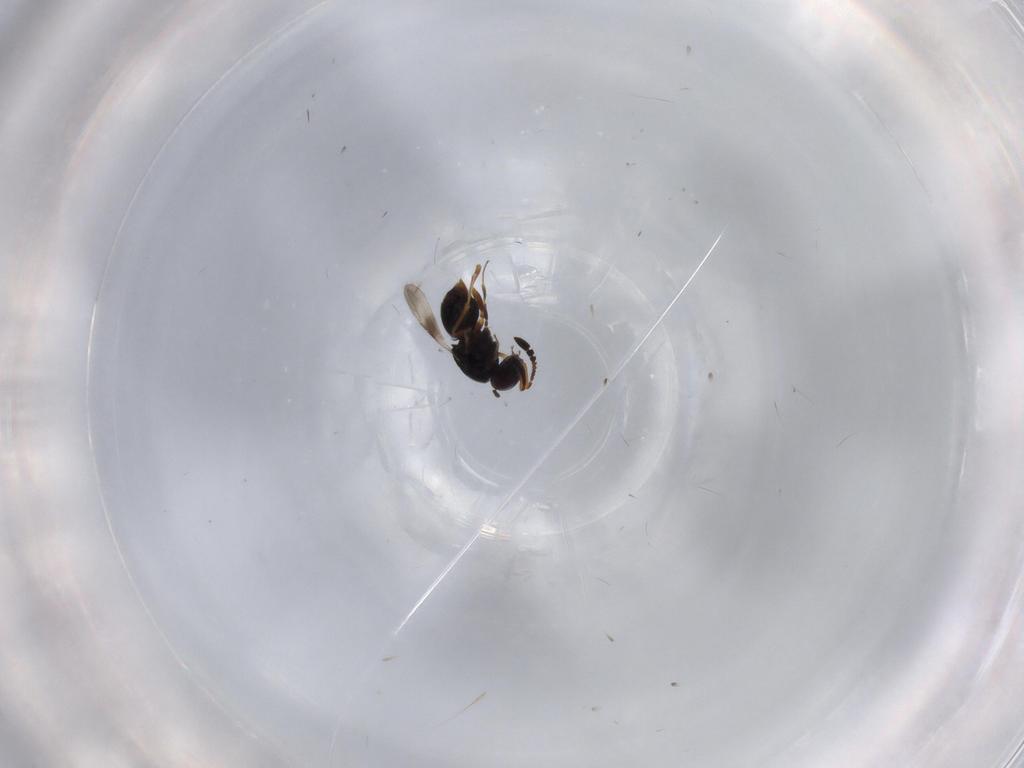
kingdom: Animalia
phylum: Arthropoda
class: Insecta
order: Hymenoptera
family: Ceraphronidae
